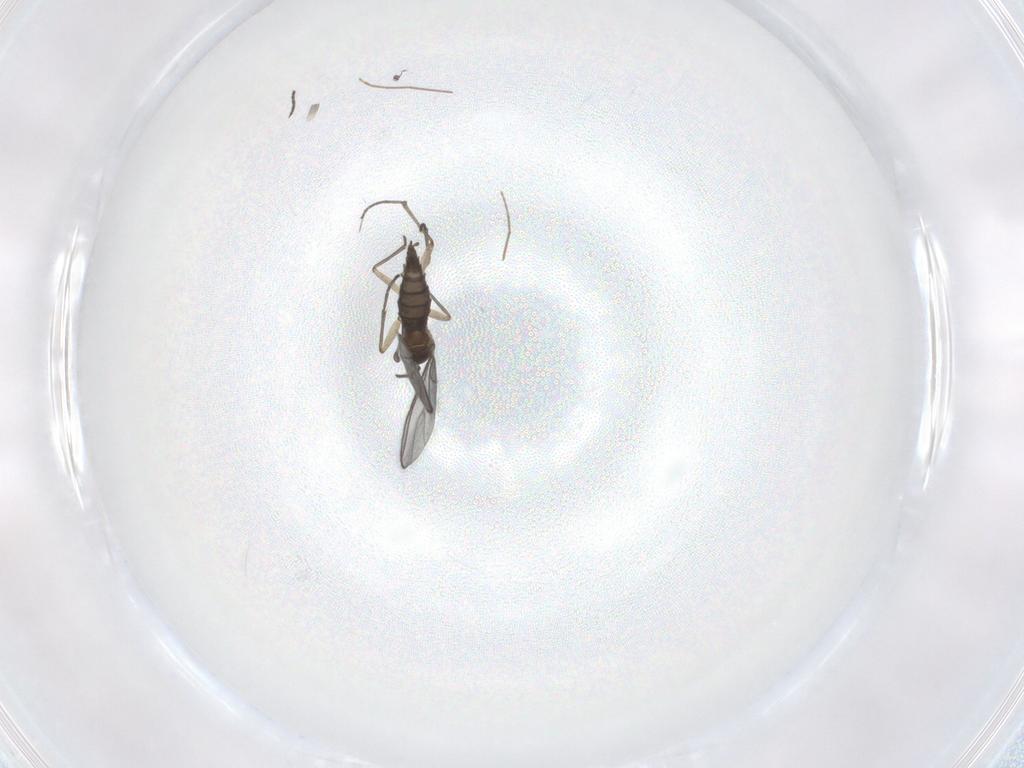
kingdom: Animalia
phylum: Arthropoda
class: Insecta
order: Diptera
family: Sciaridae
